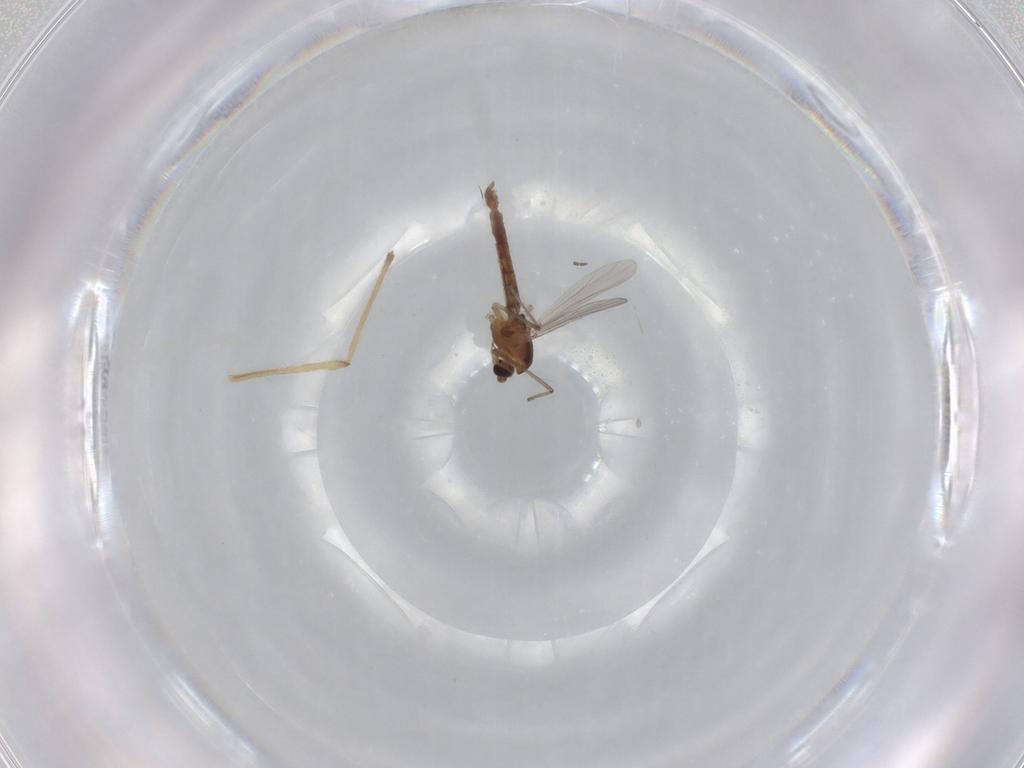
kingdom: Animalia
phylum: Arthropoda
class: Insecta
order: Diptera
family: Chironomidae
